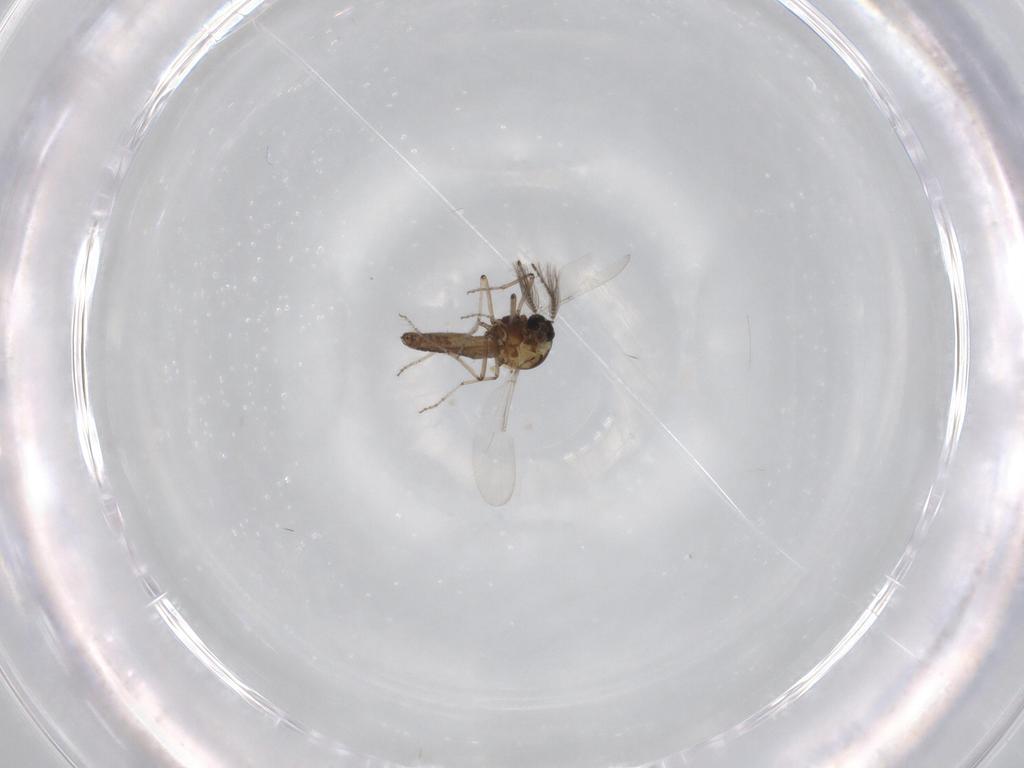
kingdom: Animalia
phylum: Arthropoda
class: Insecta
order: Diptera
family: Ceratopogonidae
